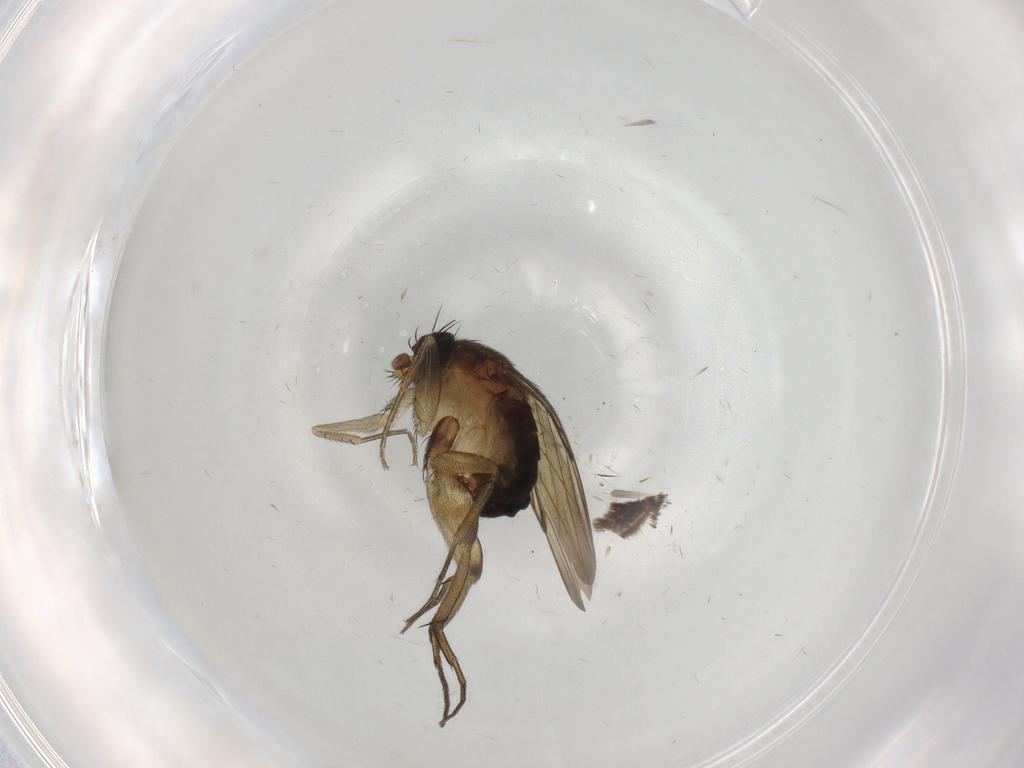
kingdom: Animalia
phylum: Arthropoda
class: Insecta
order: Diptera
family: Phoridae
